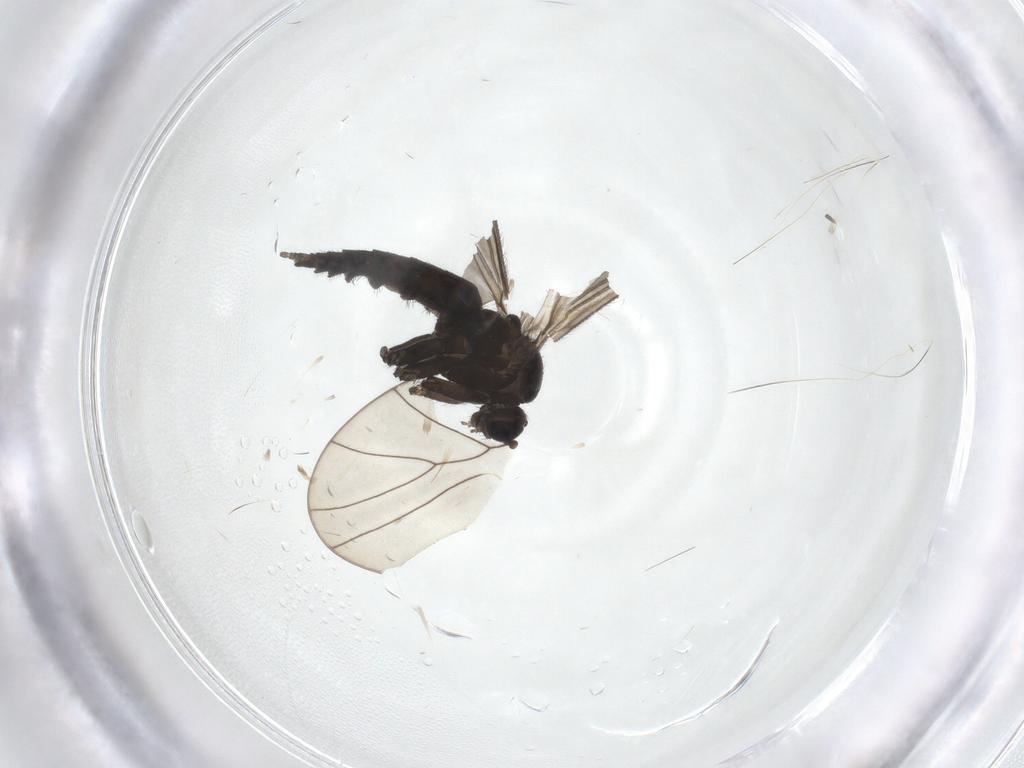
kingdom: Animalia
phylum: Arthropoda
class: Insecta
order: Diptera
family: Sciaridae
